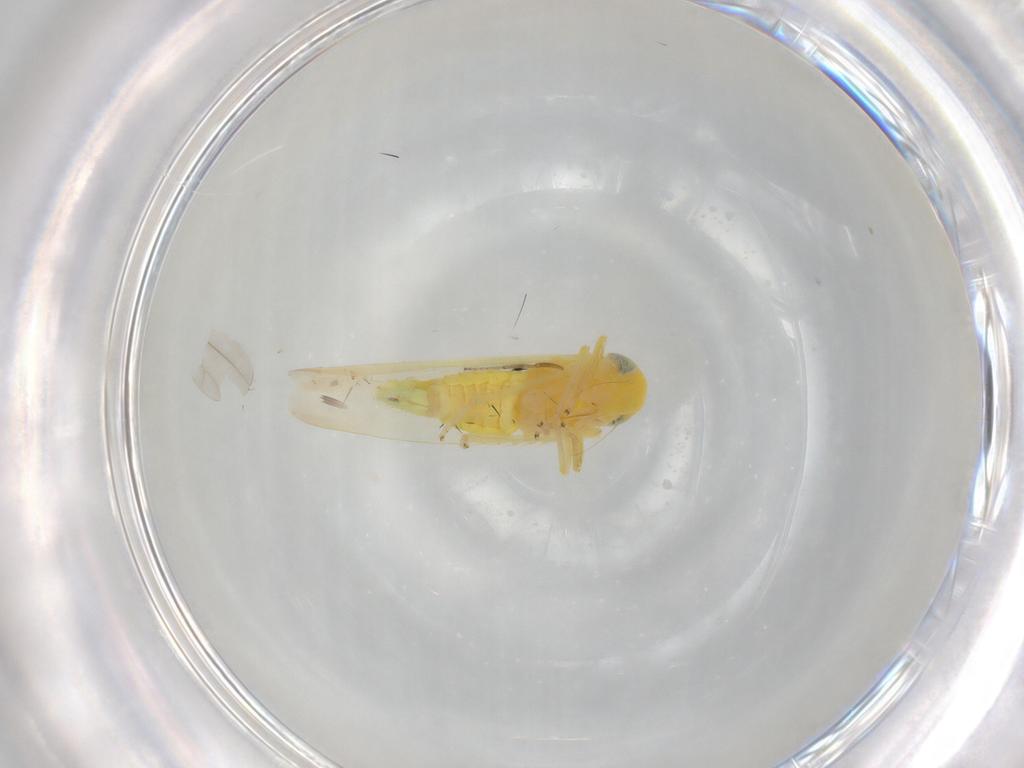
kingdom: Animalia
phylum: Arthropoda
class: Insecta
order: Hemiptera
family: Cicadellidae
